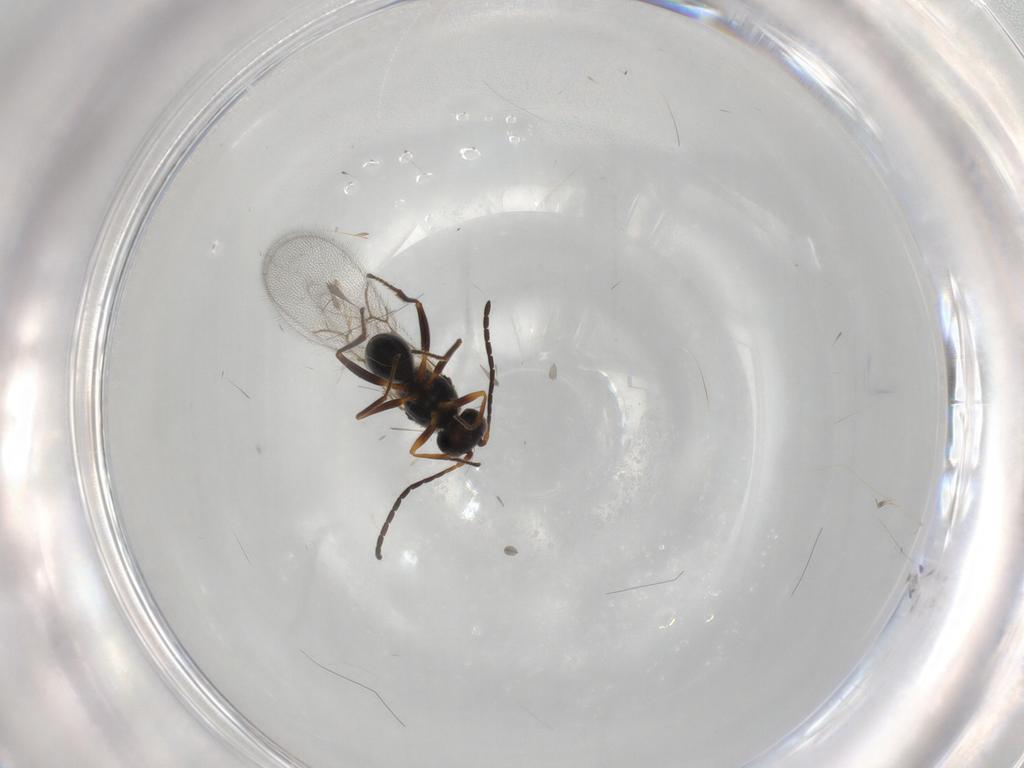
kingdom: Animalia
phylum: Arthropoda
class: Insecta
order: Hymenoptera
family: Figitidae
